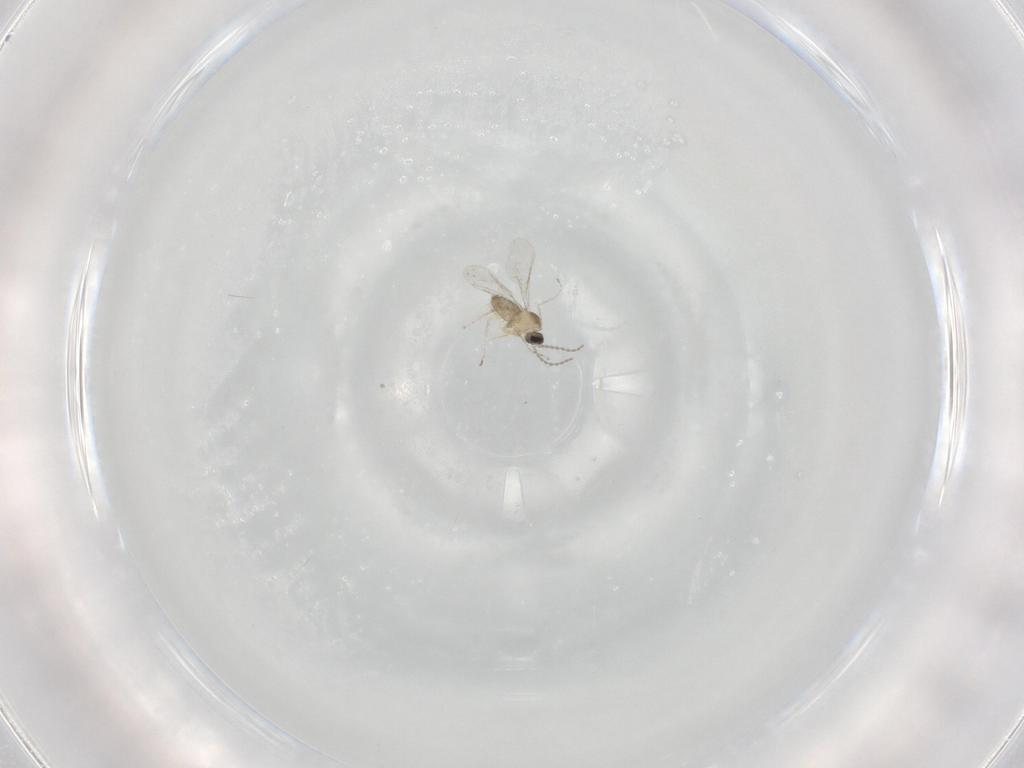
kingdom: Animalia
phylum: Arthropoda
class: Insecta
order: Diptera
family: Cecidomyiidae
